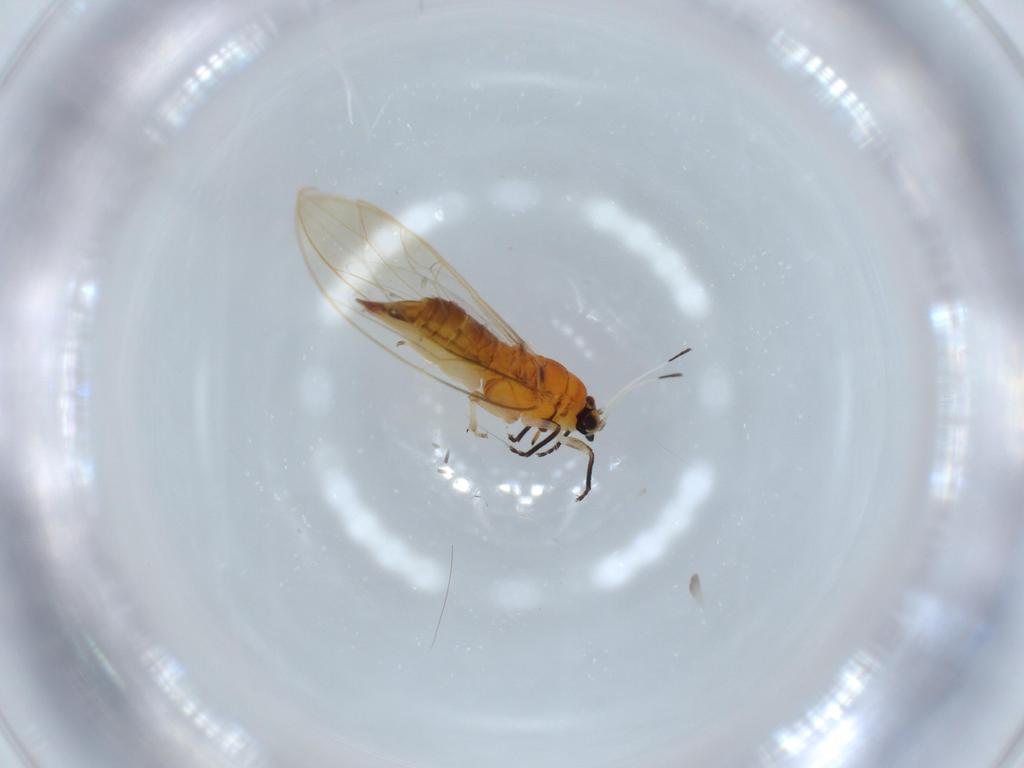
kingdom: Animalia
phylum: Arthropoda
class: Insecta
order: Hemiptera
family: Triozidae
